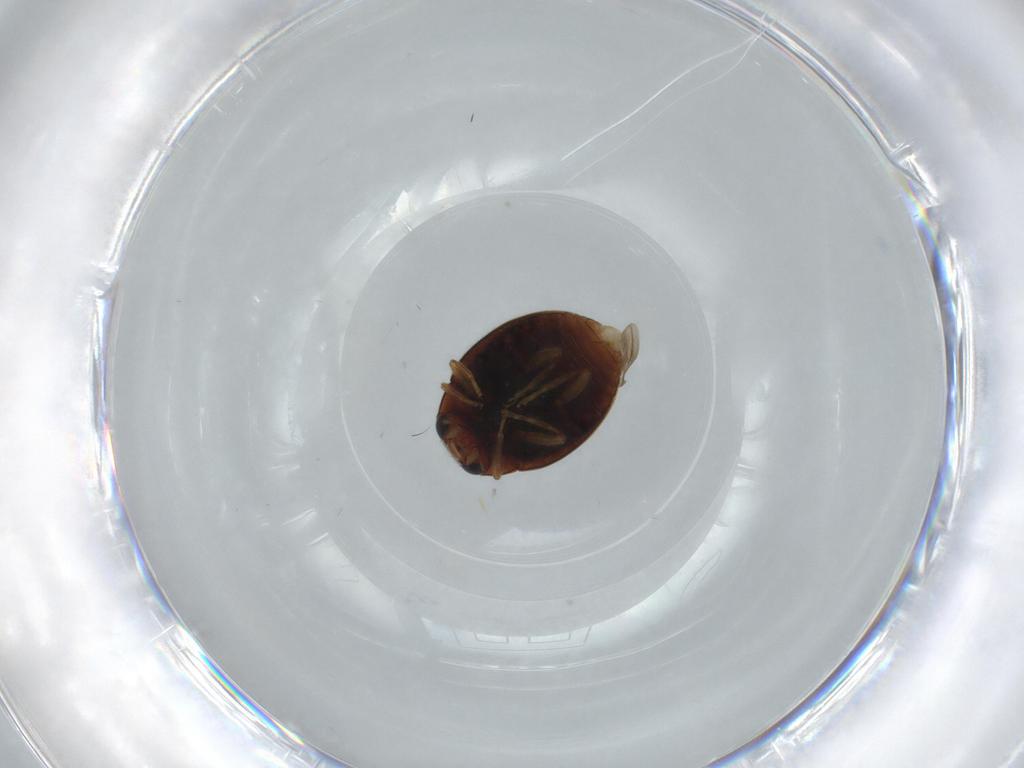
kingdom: Animalia
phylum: Arthropoda
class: Insecta
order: Coleoptera
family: Coccinellidae
